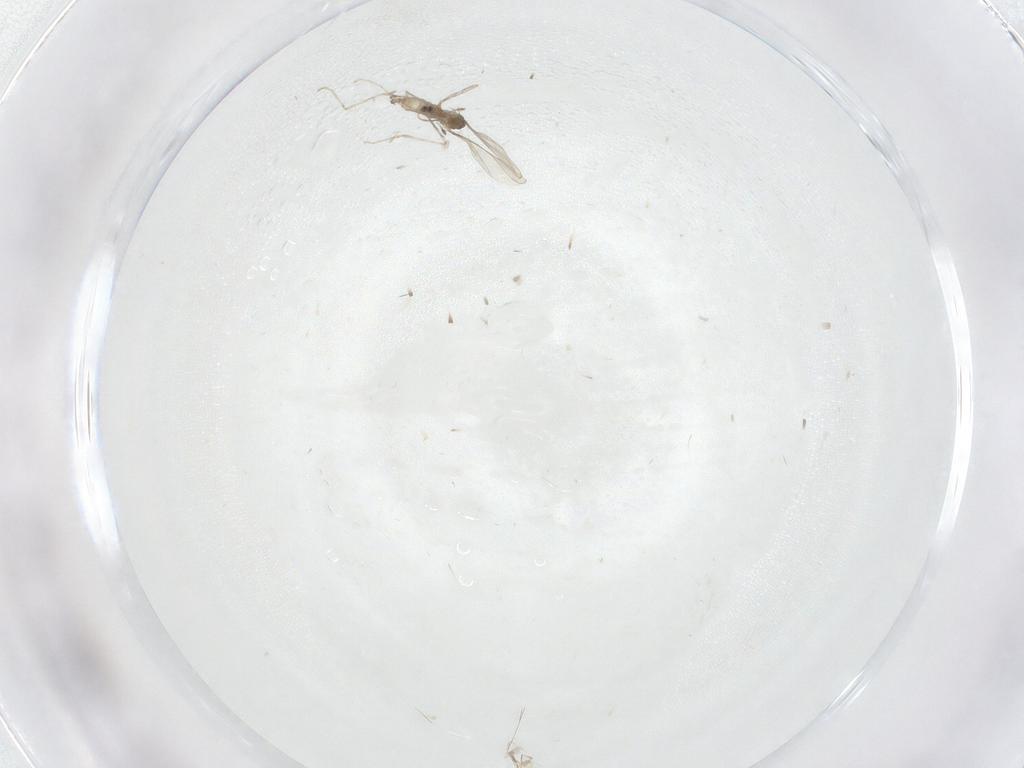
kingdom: Animalia
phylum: Arthropoda
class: Insecta
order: Diptera
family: Cecidomyiidae
